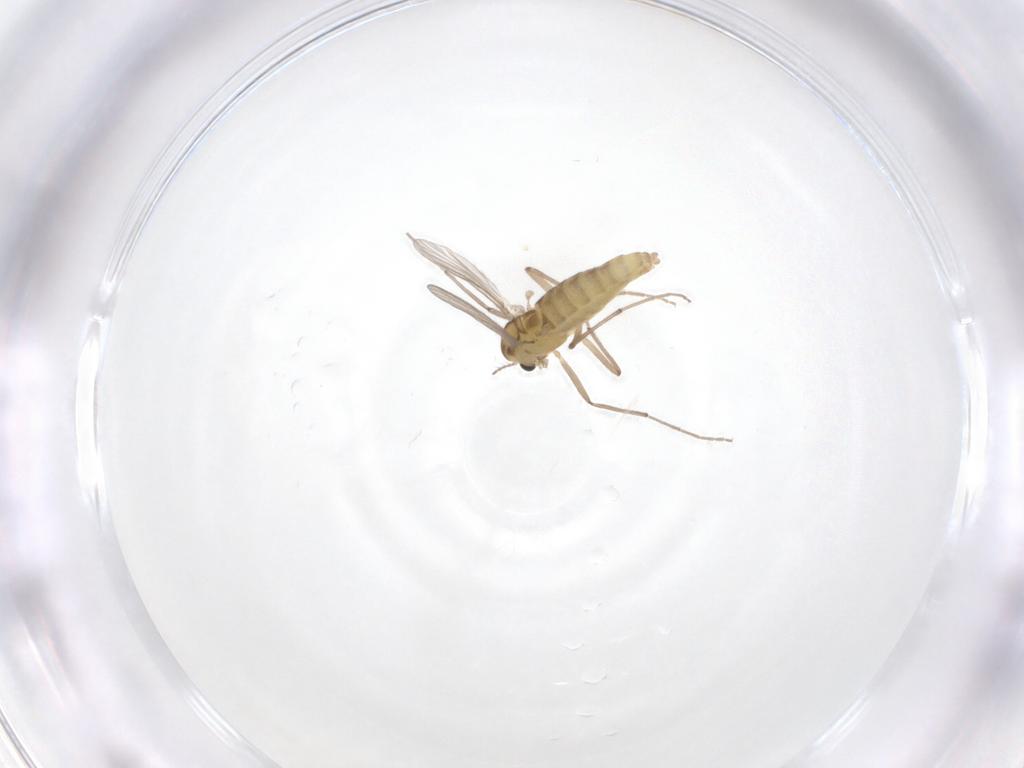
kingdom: Animalia
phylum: Arthropoda
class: Insecta
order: Diptera
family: Chironomidae
